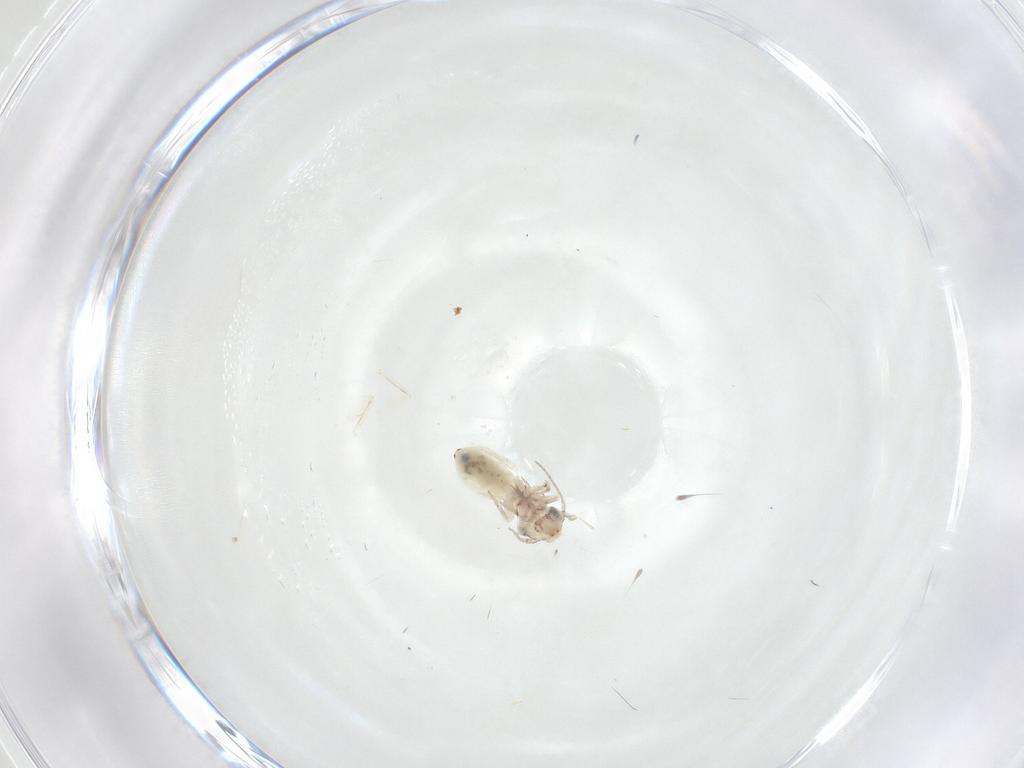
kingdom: Animalia
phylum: Arthropoda
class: Insecta
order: Psocodea
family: Lepidopsocidae
